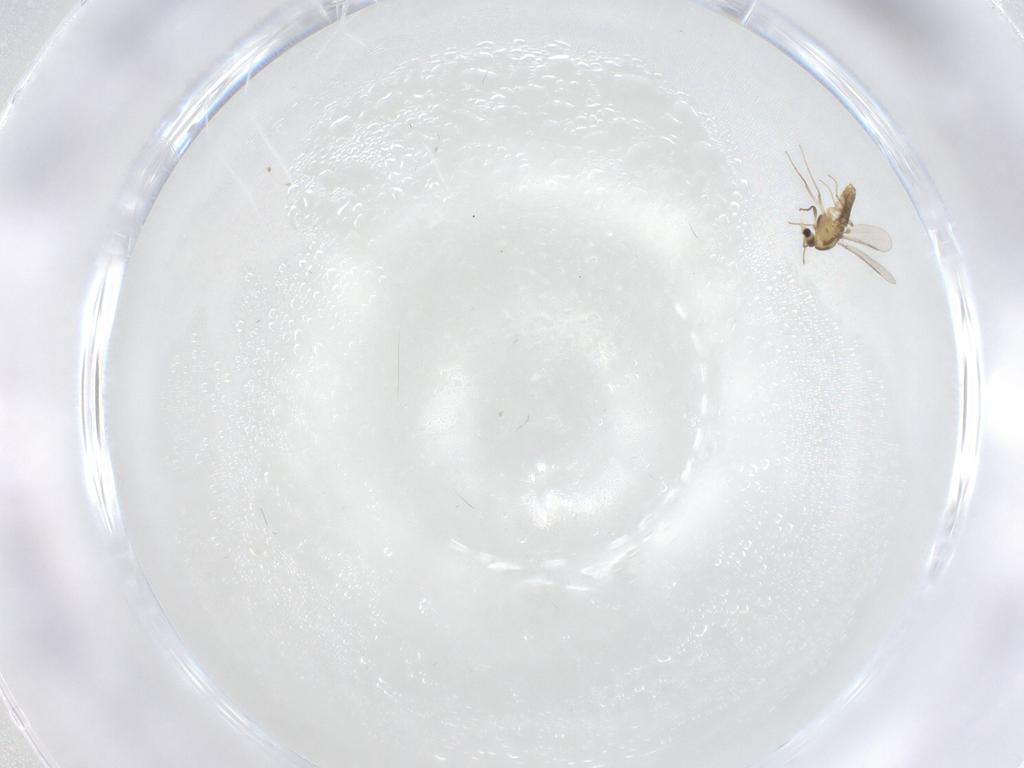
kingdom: Animalia
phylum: Arthropoda
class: Insecta
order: Diptera
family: Chironomidae
